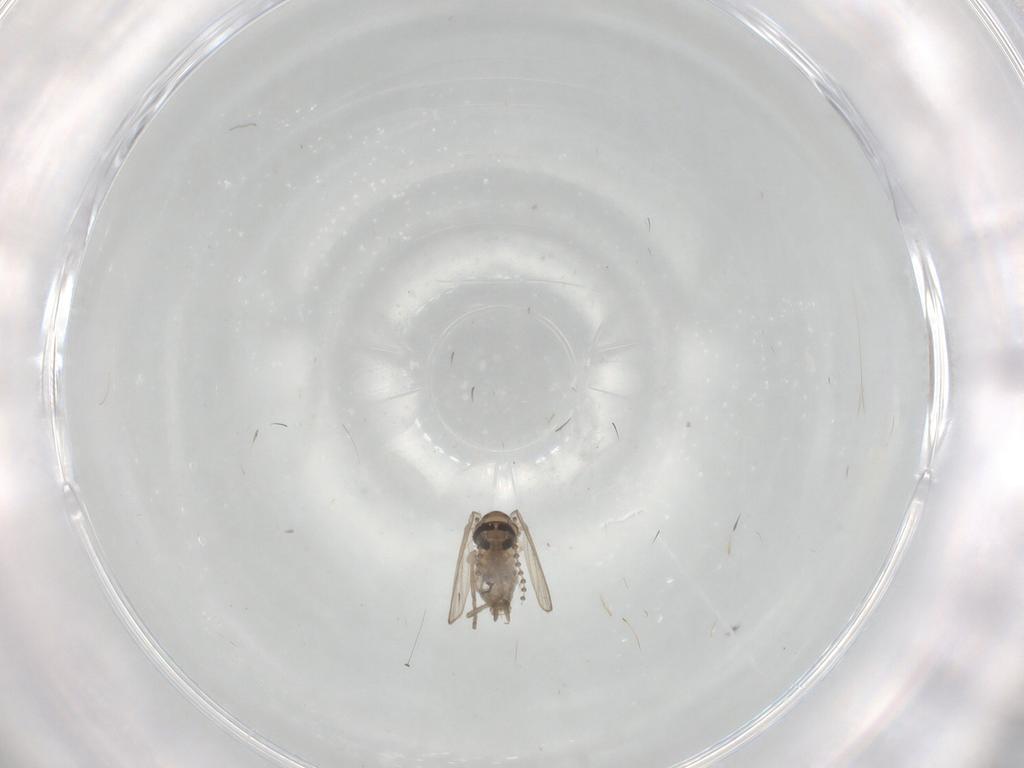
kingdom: Animalia
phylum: Arthropoda
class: Insecta
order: Diptera
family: Psychodidae
